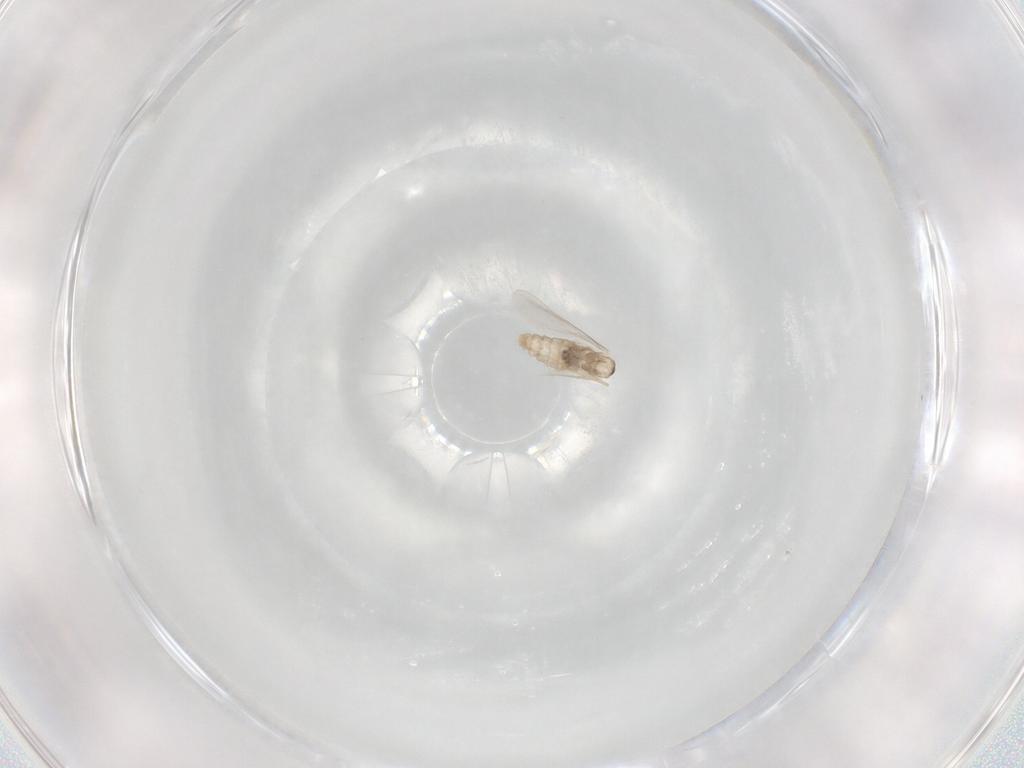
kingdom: Animalia
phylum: Arthropoda
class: Insecta
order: Diptera
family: Cecidomyiidae
